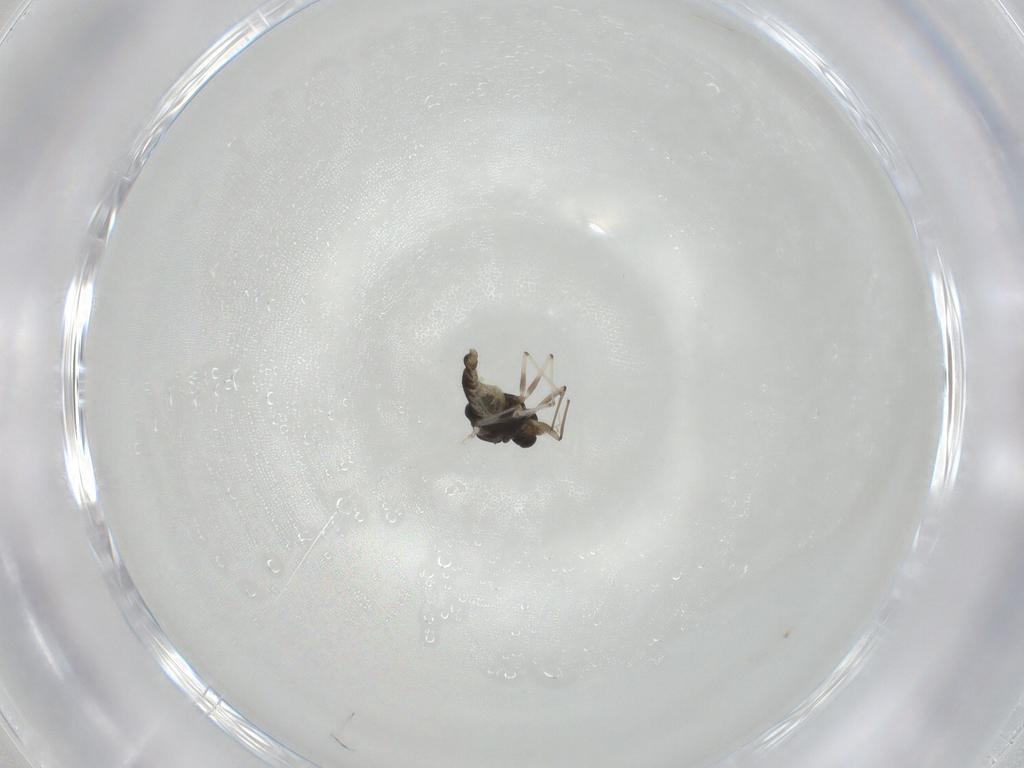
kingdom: Animalia
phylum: Arthropoda
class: Insecta
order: Diptera
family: Chironomidae
